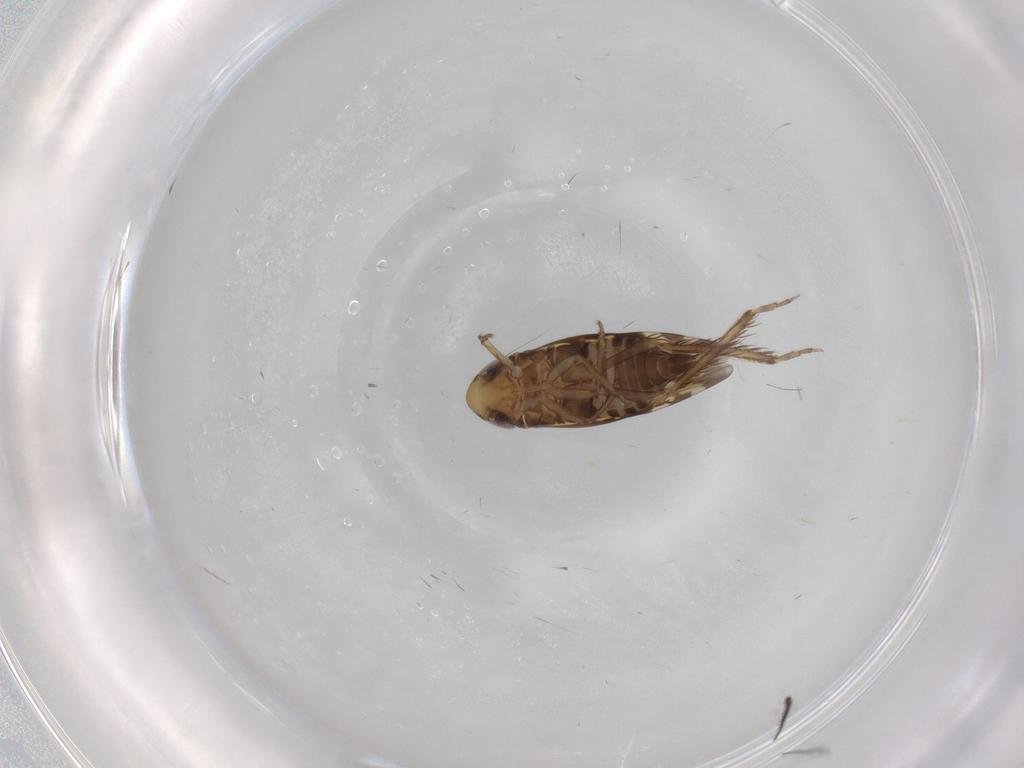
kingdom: Animalia
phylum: Arthropoda
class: Insecta
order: Hemiptera
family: Cicadellidae
